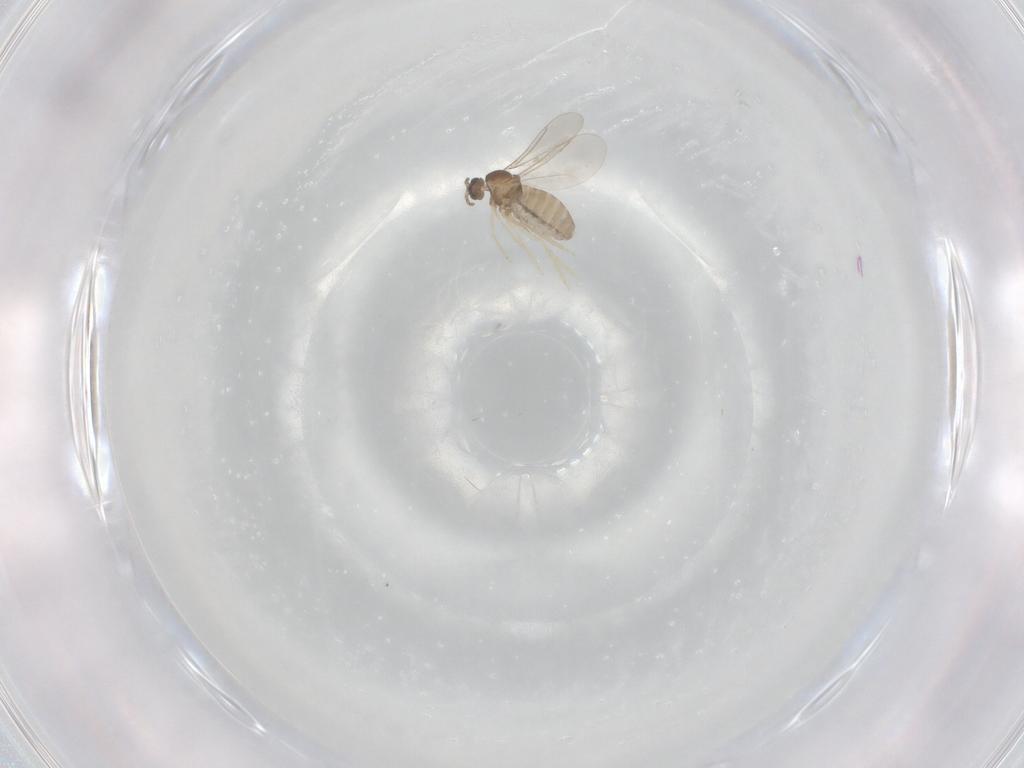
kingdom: Animalia
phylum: Arthropoda
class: Insecta
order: Diptera
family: Cecidomyiidae
